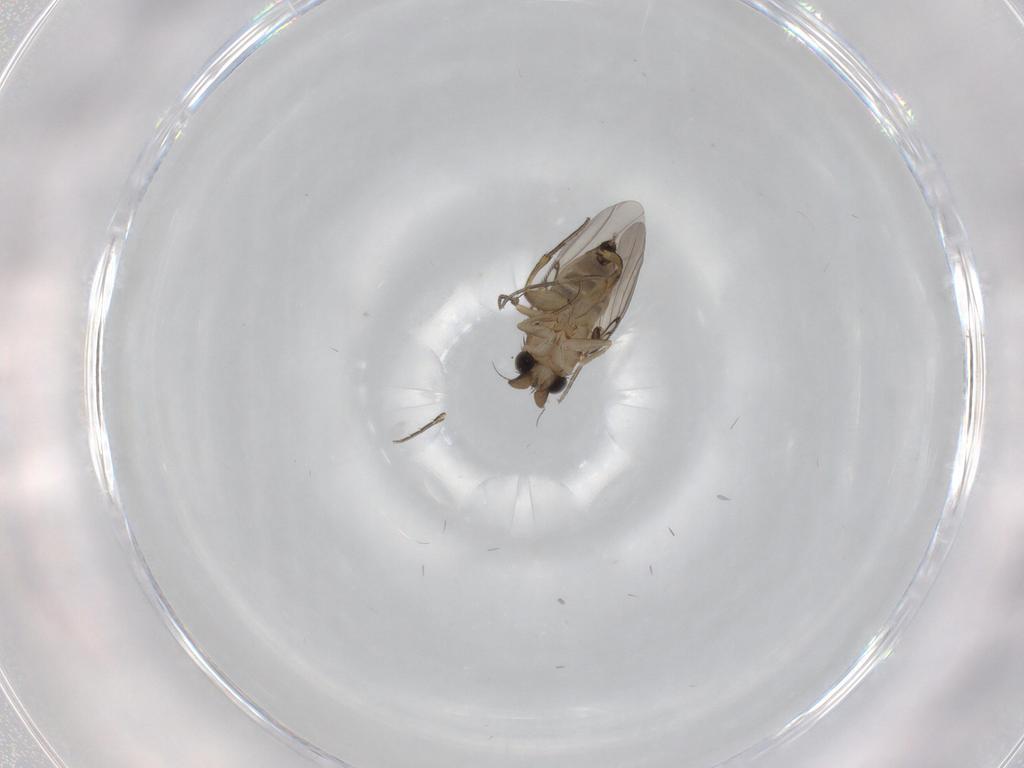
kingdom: Animalia
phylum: Arthropoda
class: Insecta
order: Diptera
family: Phoridae
